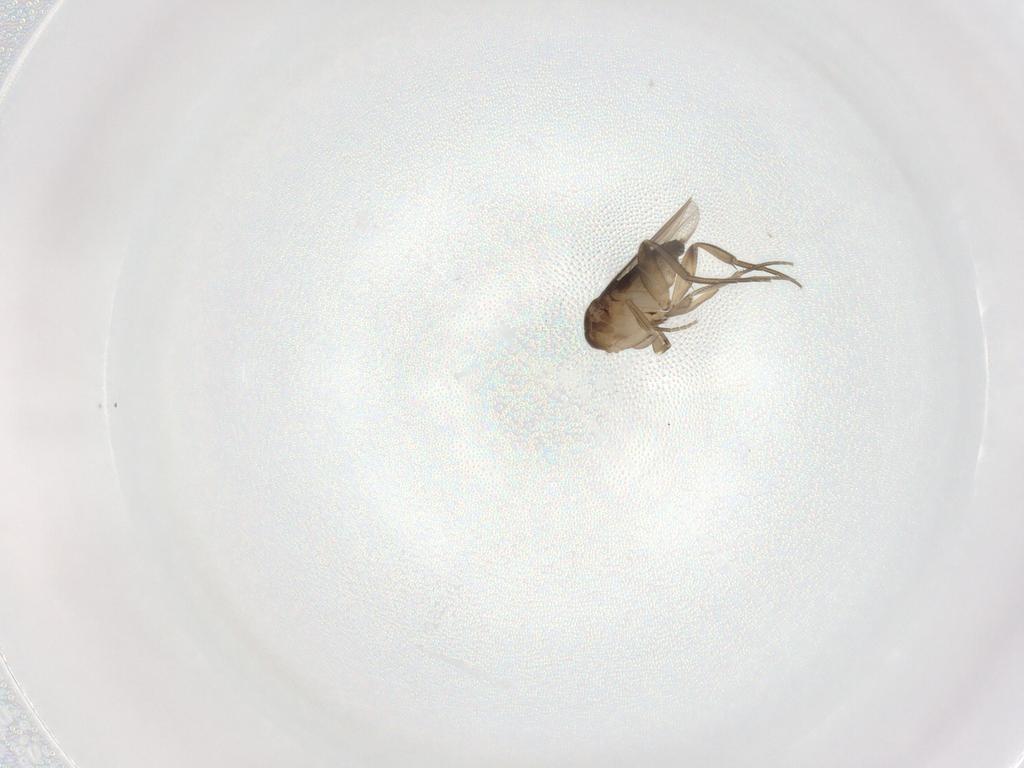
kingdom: Animalia
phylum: Arthropoda
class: Insecta
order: Diptera
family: Phoridae
